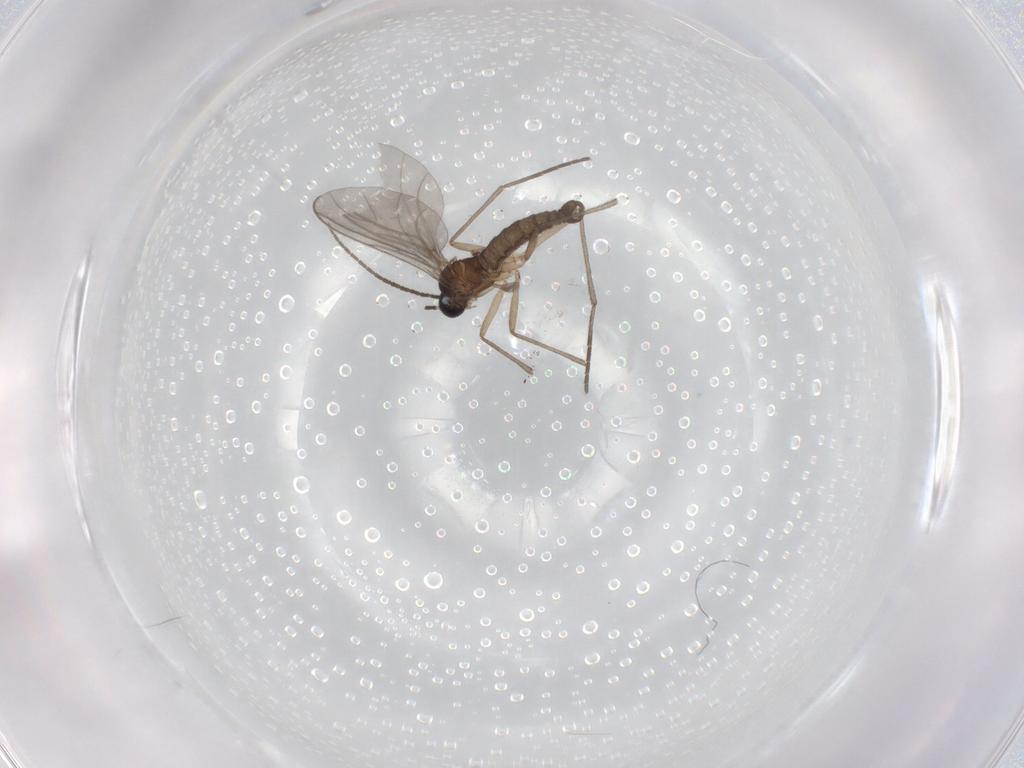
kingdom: Animalia
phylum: Arthropoda
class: Insecta
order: Diptera
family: Sciaridae
